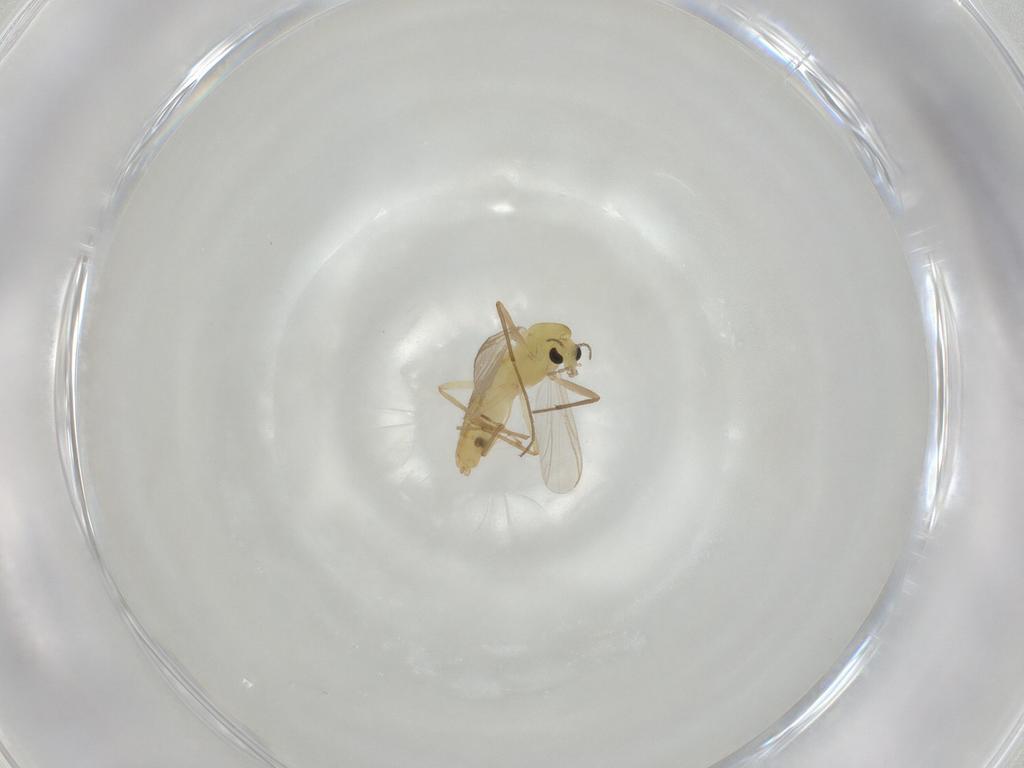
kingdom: Animalia
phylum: Arthropoda
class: Insecta
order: Diptera
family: Chironomidae
